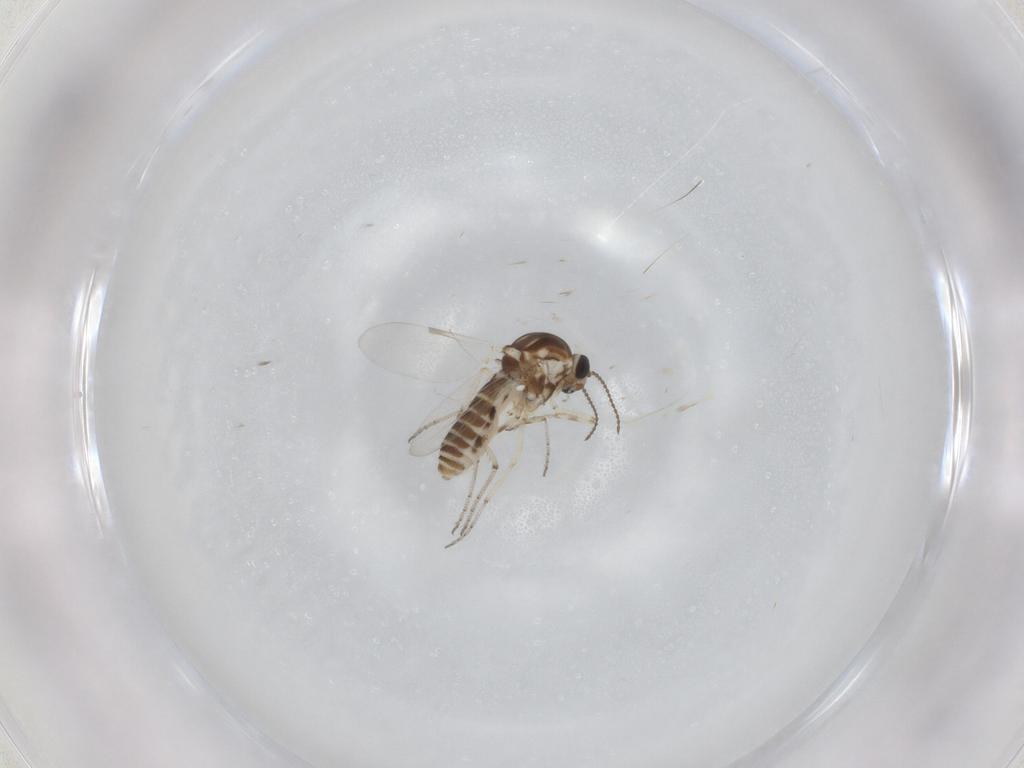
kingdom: Animalia
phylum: Arthropoda
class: Insecta
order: Diptera
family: Ceratopogonidae
